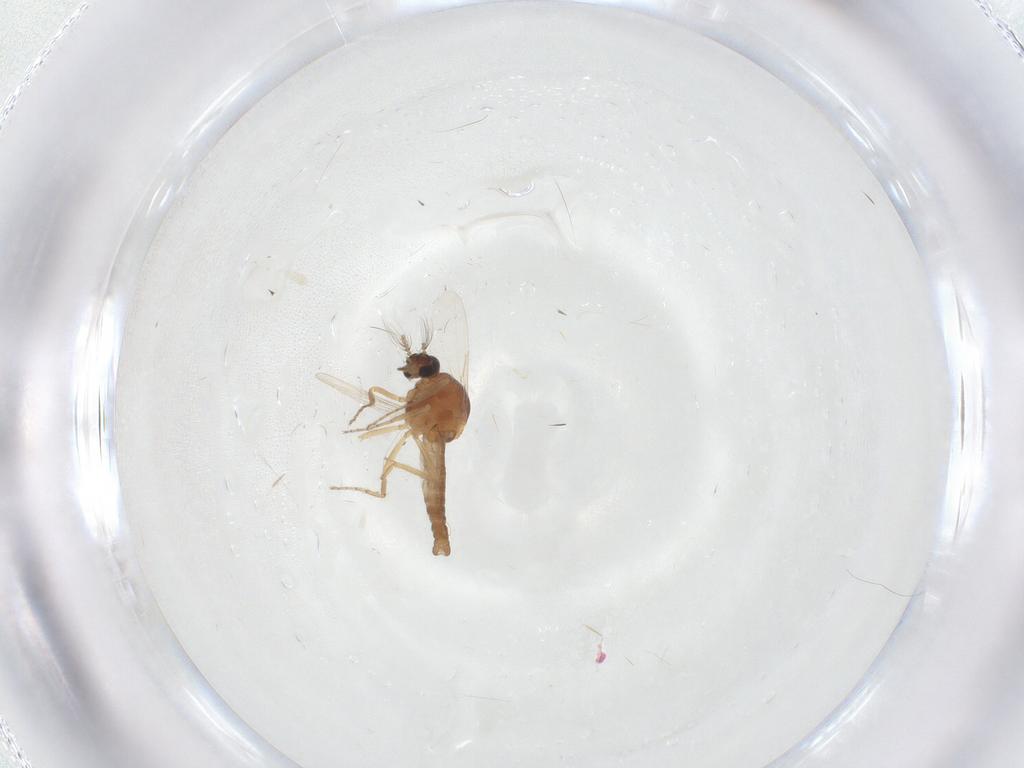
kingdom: Animalia
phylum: Arthropoda
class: Insecta
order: Diptera
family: Ceratopogonidae
